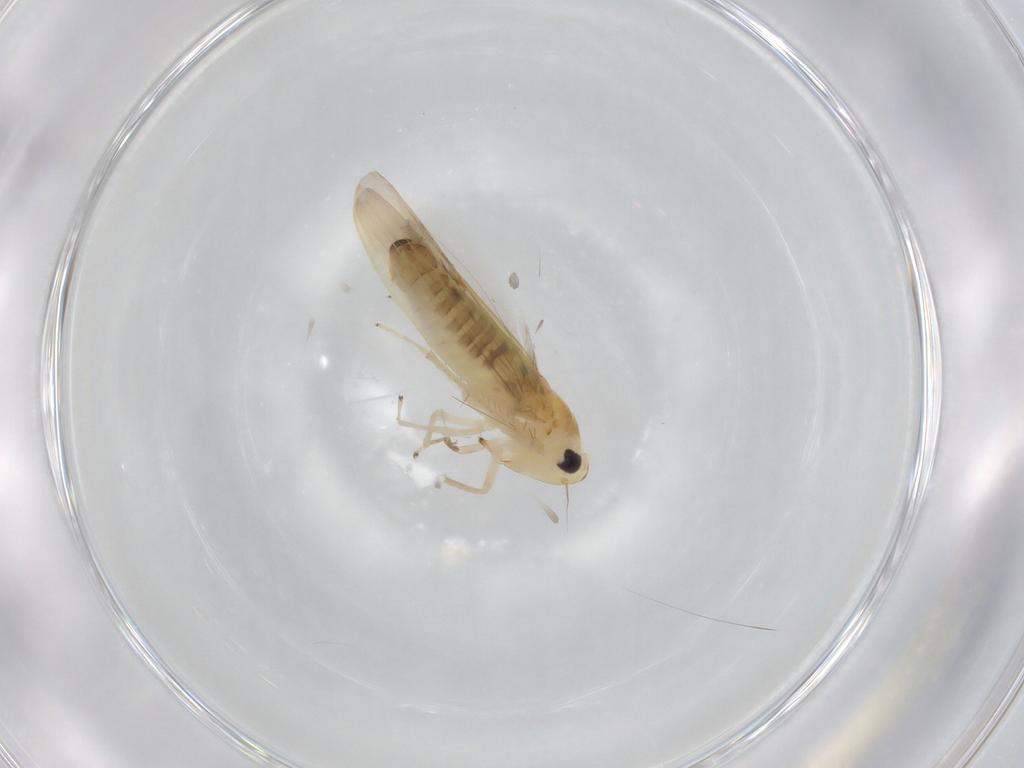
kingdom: Animalia
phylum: Arthropoda
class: Insecta
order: Hemiptera
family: Cicadellidae
